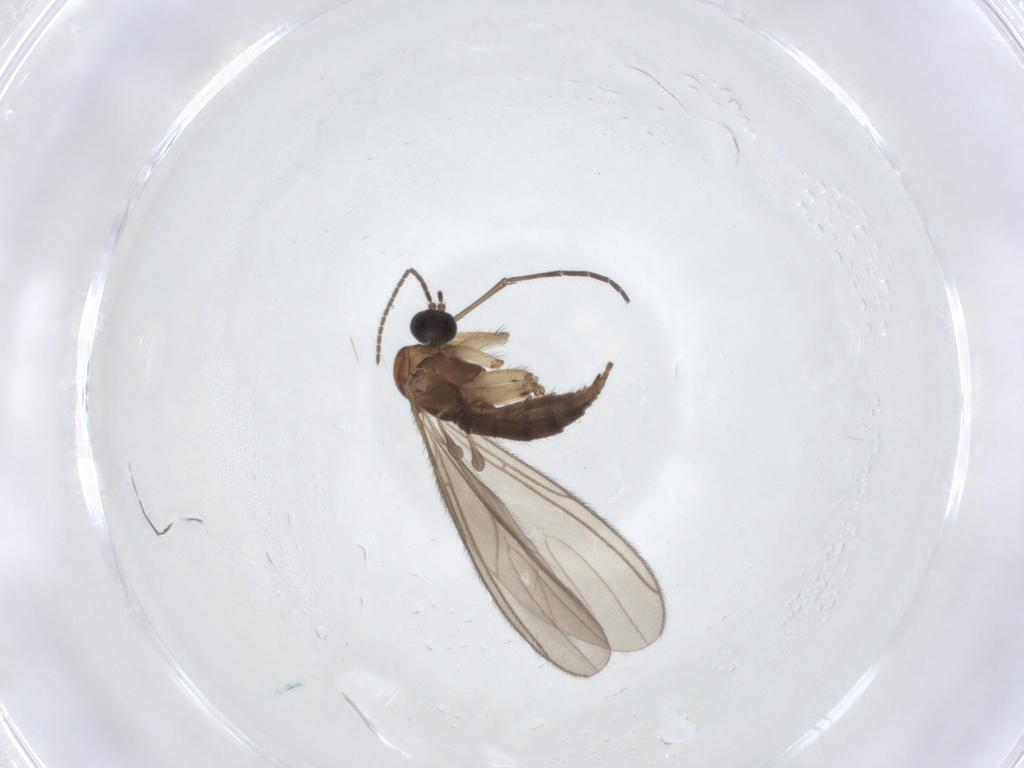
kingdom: Animalia
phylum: Arthropoda
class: Insecta
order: Diptera
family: Sciaridae
